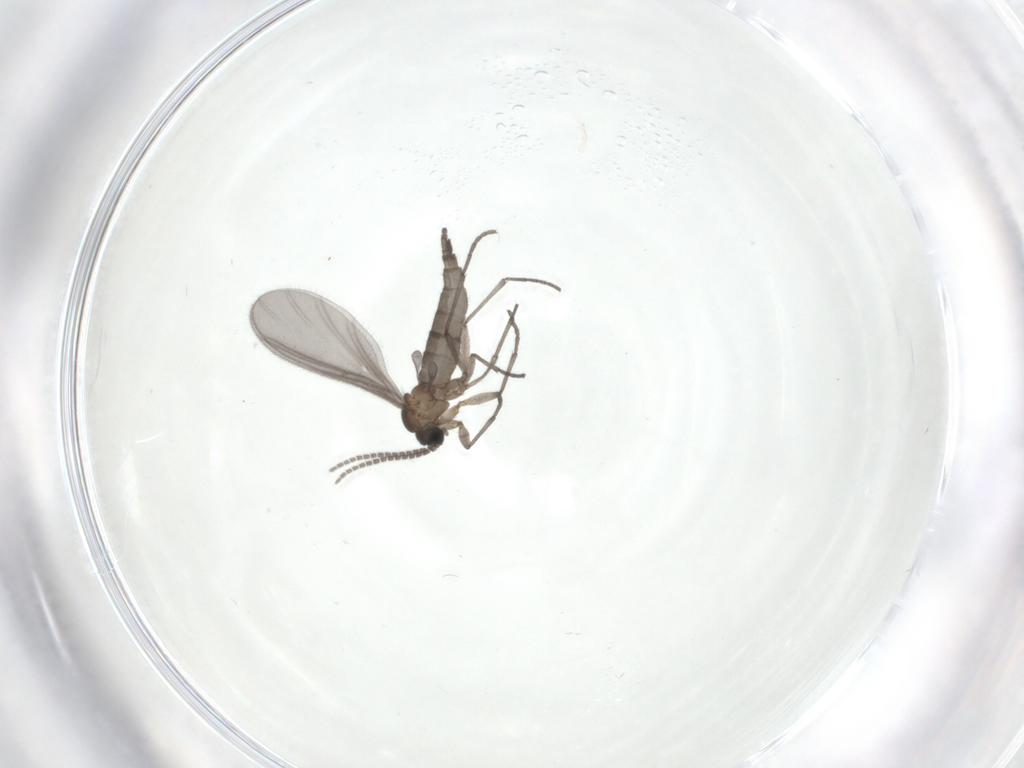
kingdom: Animalia
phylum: Arthropoda
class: Insecta
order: Diptera
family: Sciaridae
